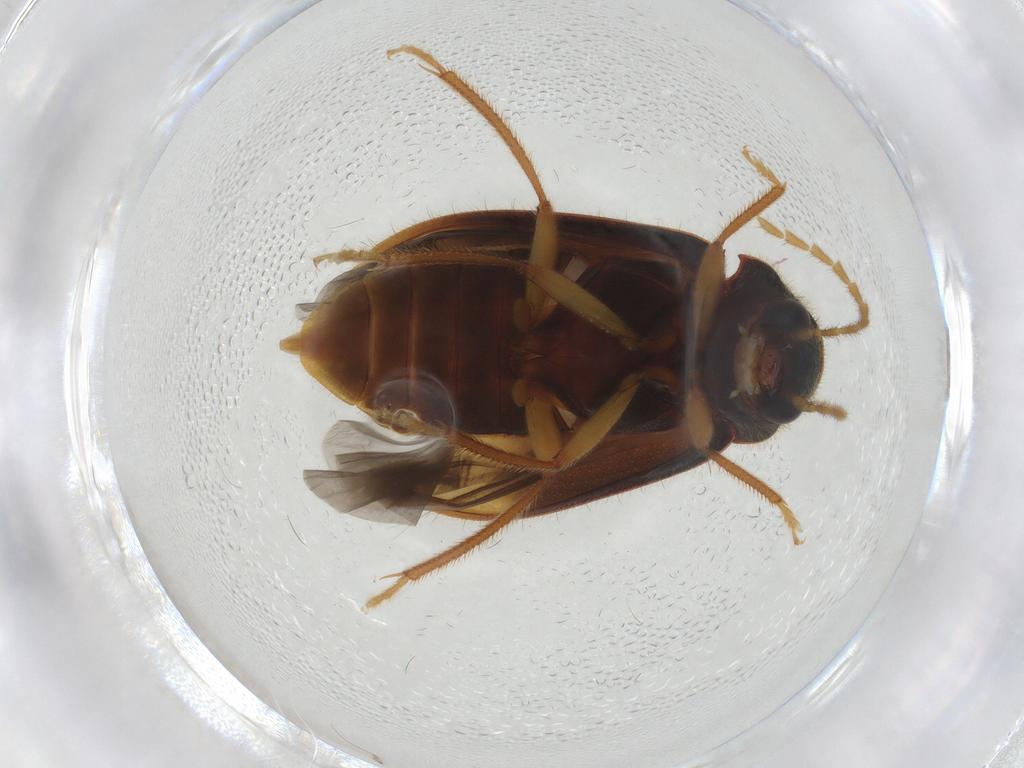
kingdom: Animalia
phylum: Arthropoda
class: Insecta
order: Coleoptera
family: Ptilodactylidae
